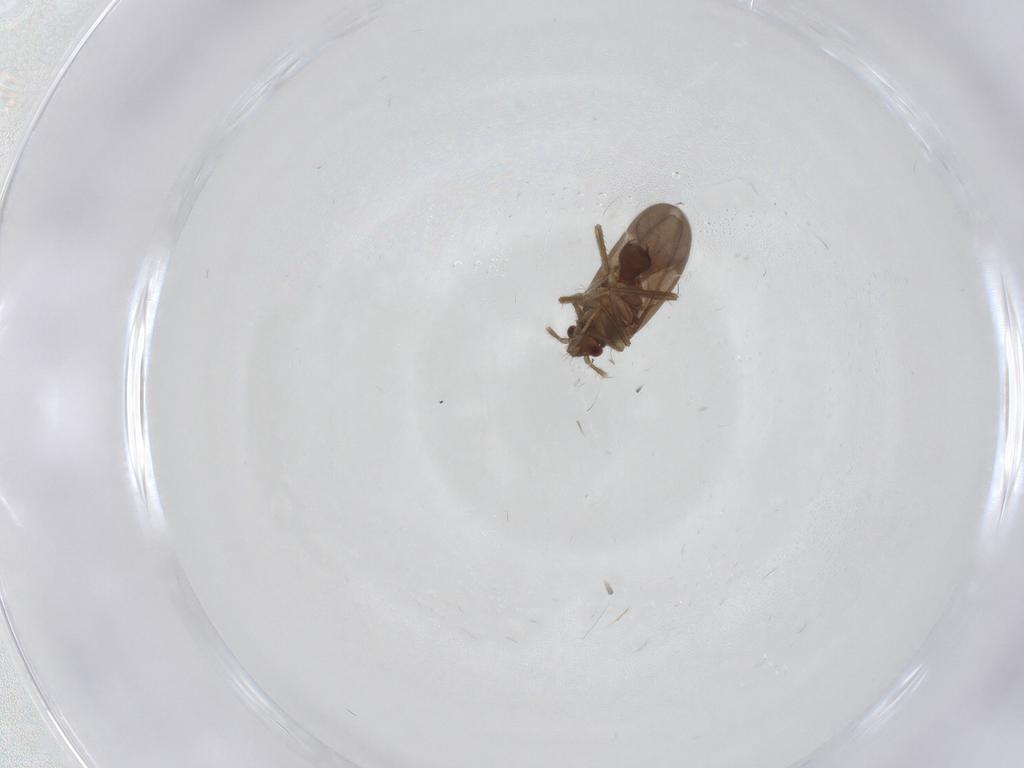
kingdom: Animalia
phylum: Arthropoda
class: Insecta
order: Hemiptera
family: Ceratocombidae
